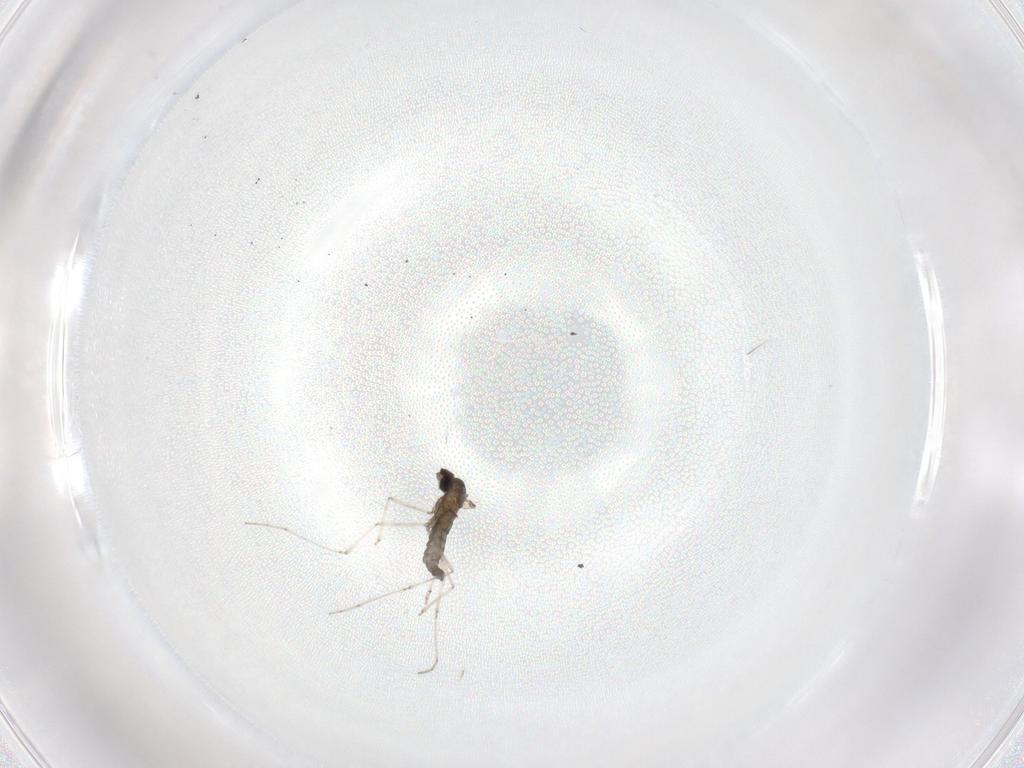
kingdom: Animalia
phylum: Arthropoda
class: Insecta
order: Diptera
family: Cecidomyiidae
